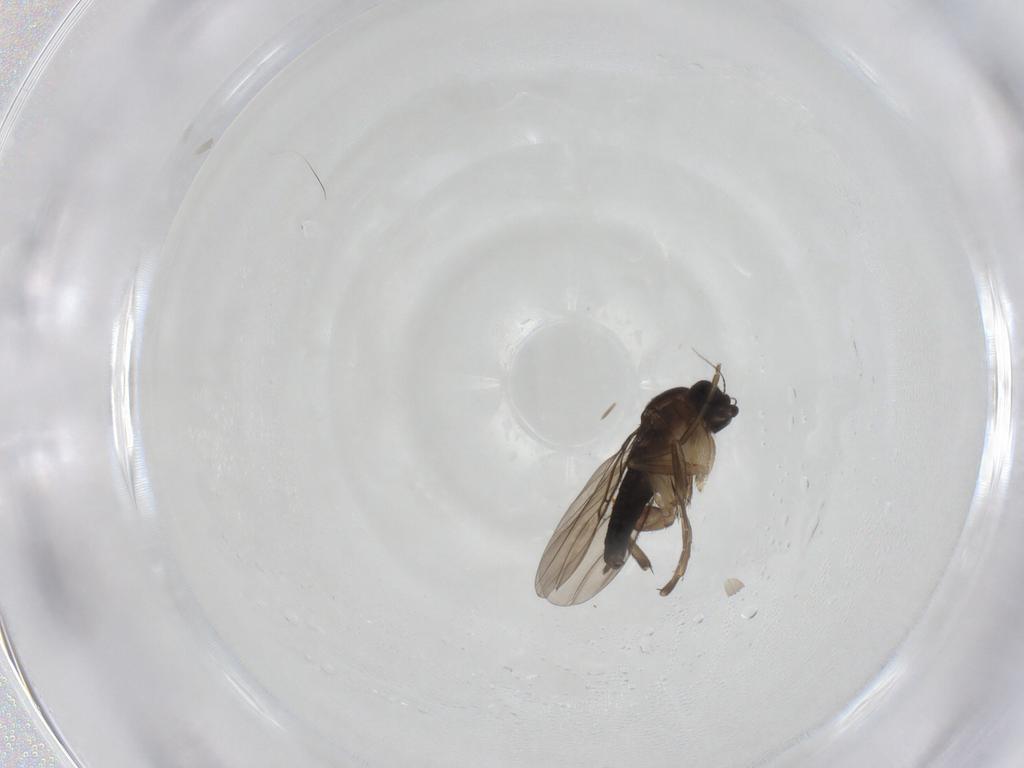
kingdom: Animalia
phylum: Arthropoda
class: Insecta
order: Diptera
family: Phoridae
